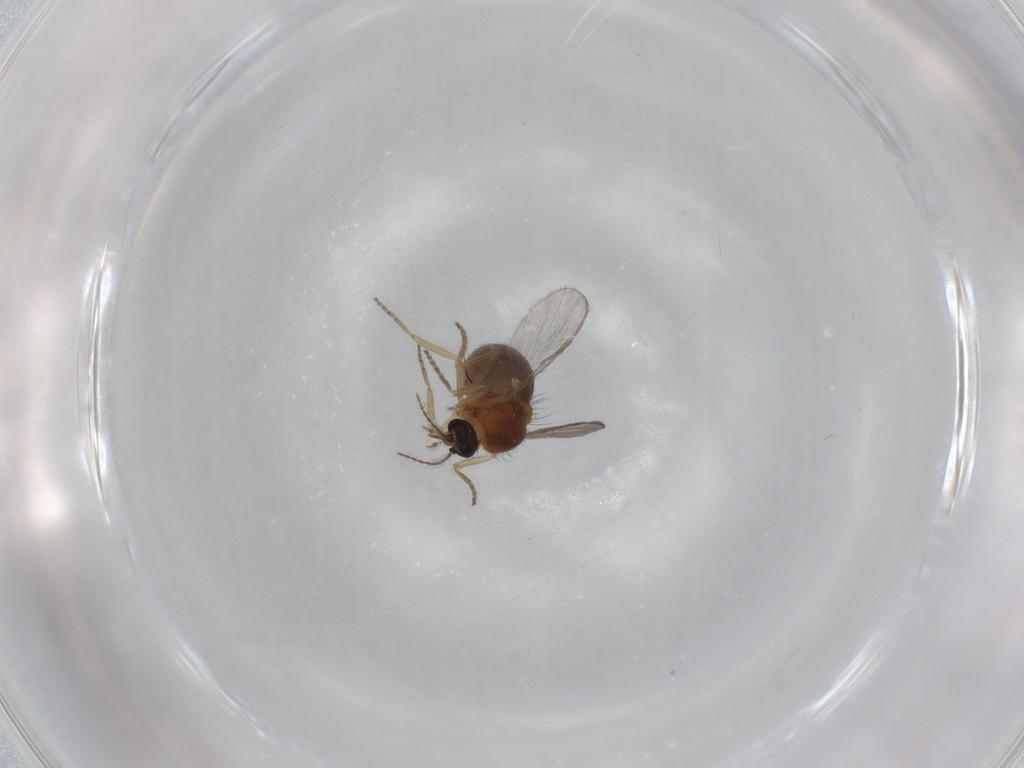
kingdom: Animalia
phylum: Arthropoda
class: Insecta
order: Diptera
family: Ceratopogonidae
